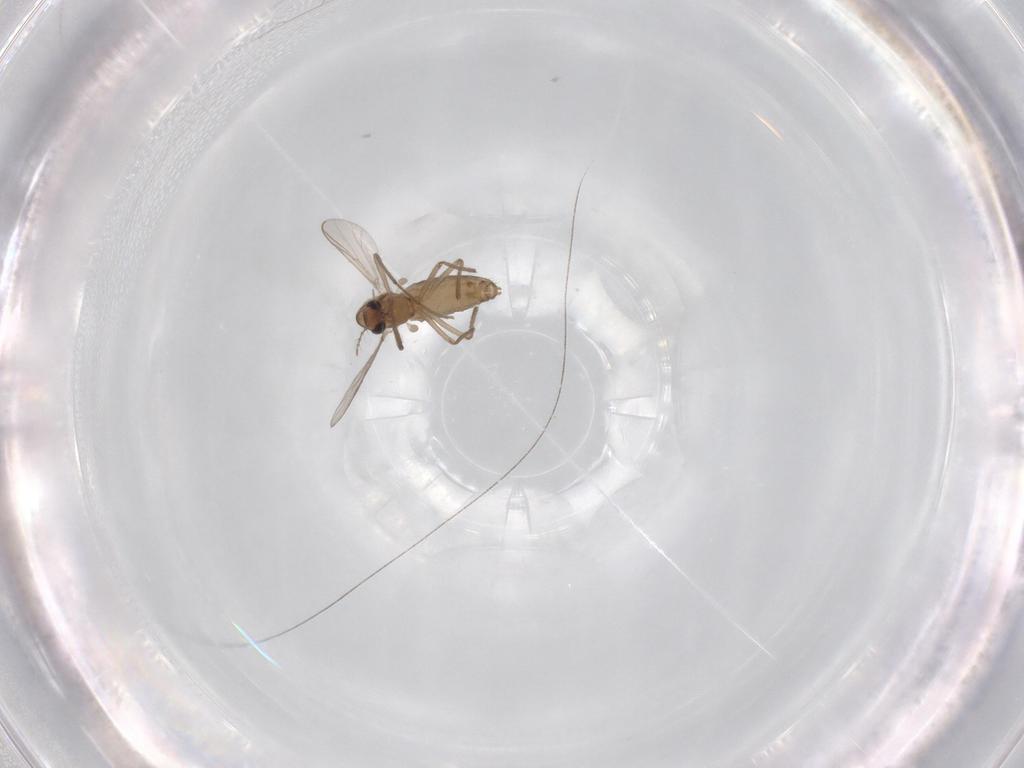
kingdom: Animalia
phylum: Arthropoda
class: Insecta
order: Diptera
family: Chironomidae
